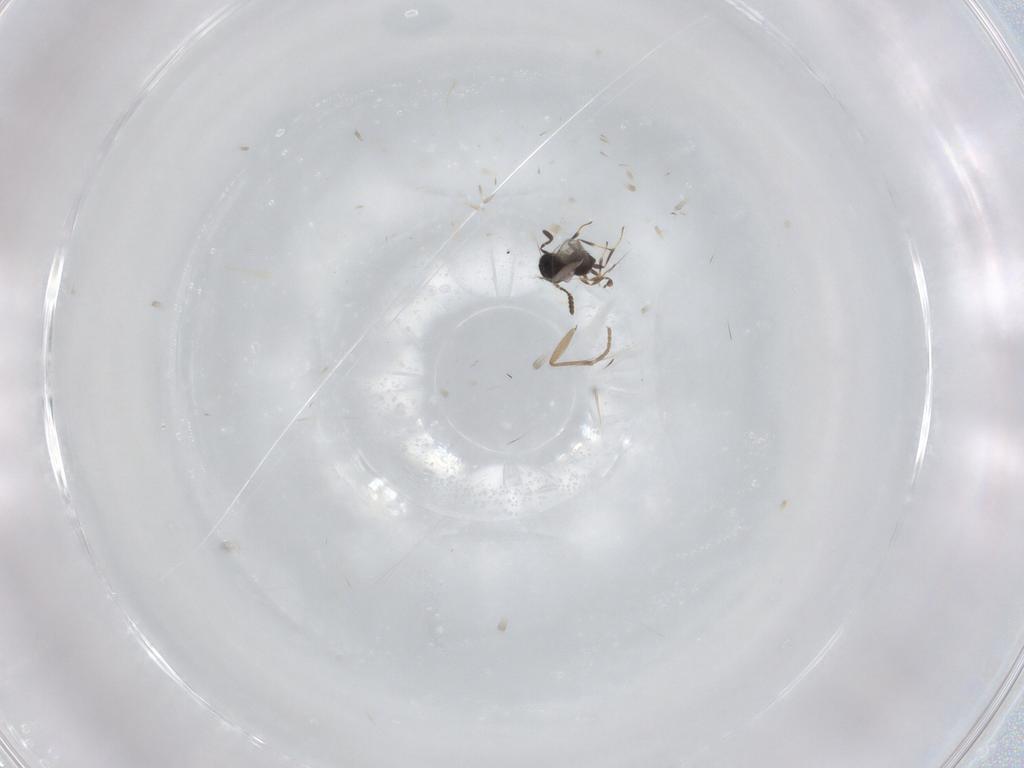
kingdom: Animalia
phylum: Arthropoda
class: Insecta
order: Hymenoptera
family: Scelionidae
